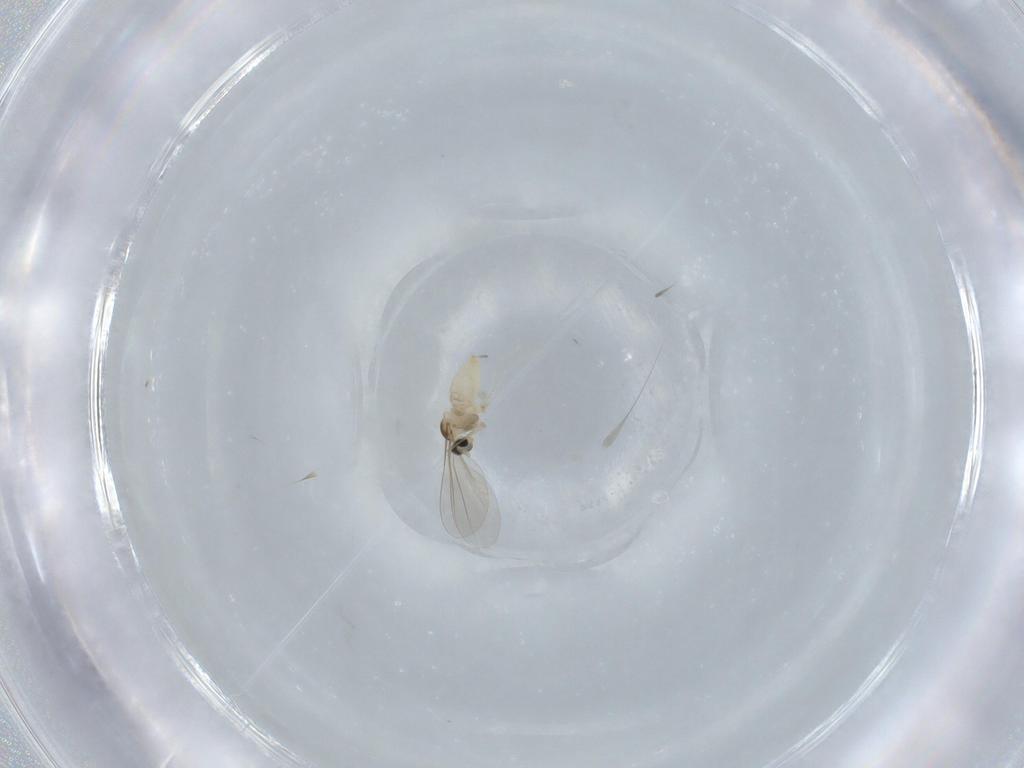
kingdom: Animalia
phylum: Arthropoda
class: Insecta
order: Diptera
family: Cecidomyiidae
